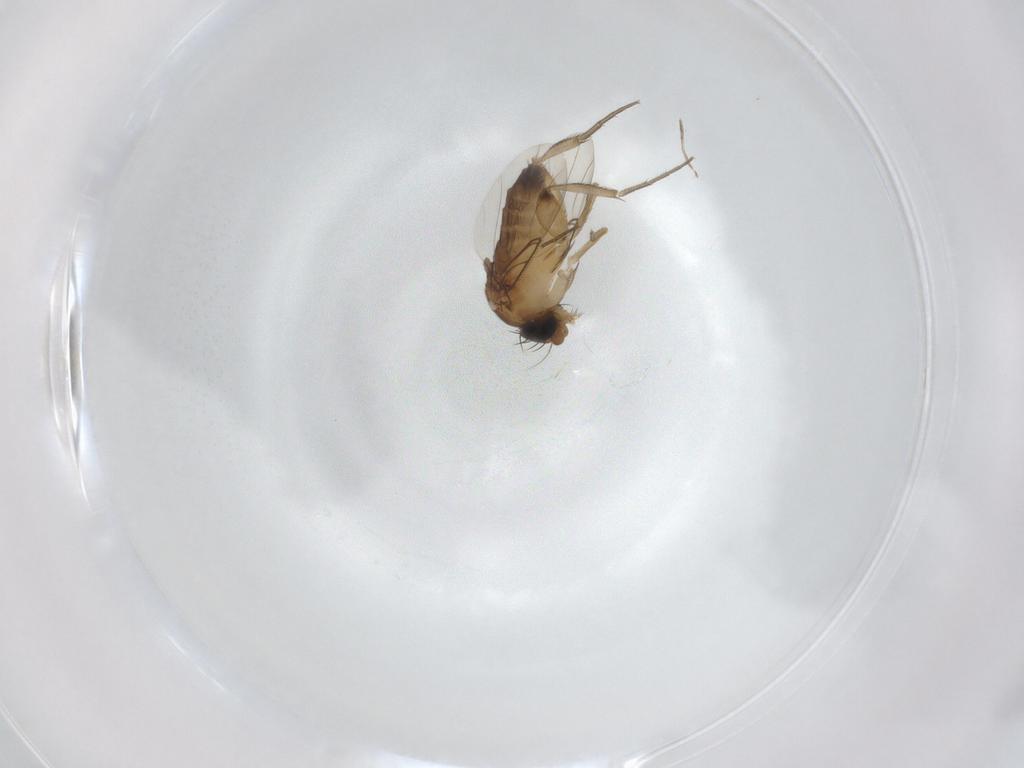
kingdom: Animalia
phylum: Arthropoda
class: Insecta
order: Diptera
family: Phoridae
